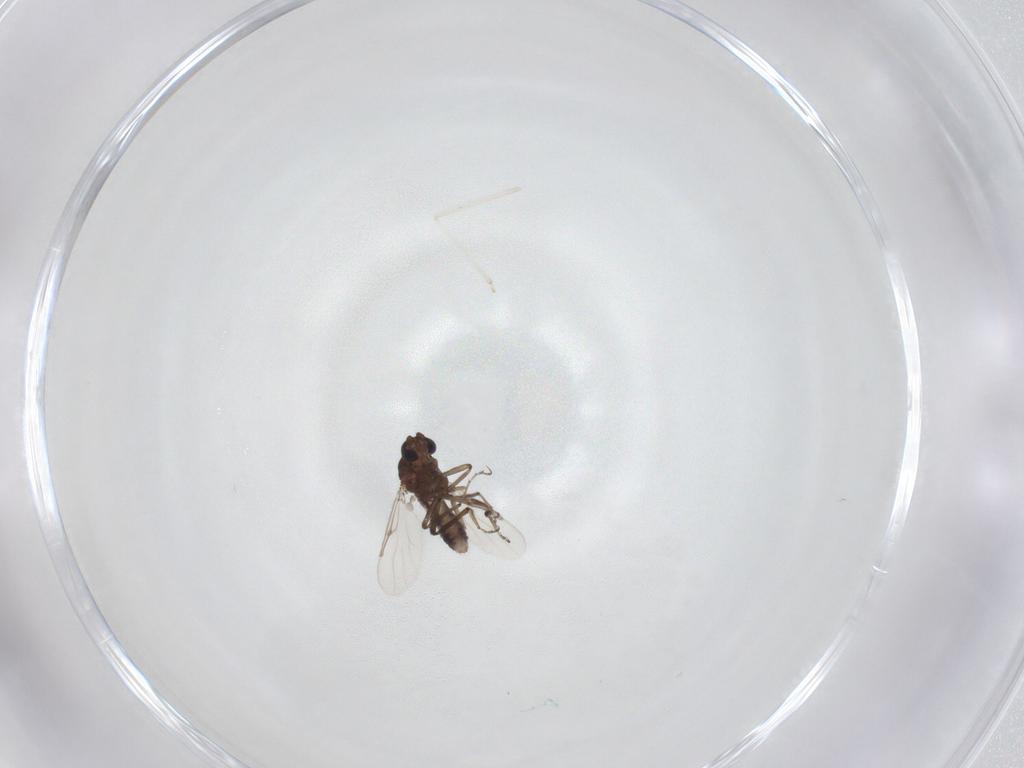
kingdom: Animalia
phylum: Arthropoda
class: Insecta
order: Diptera
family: Cecidomyiidae
